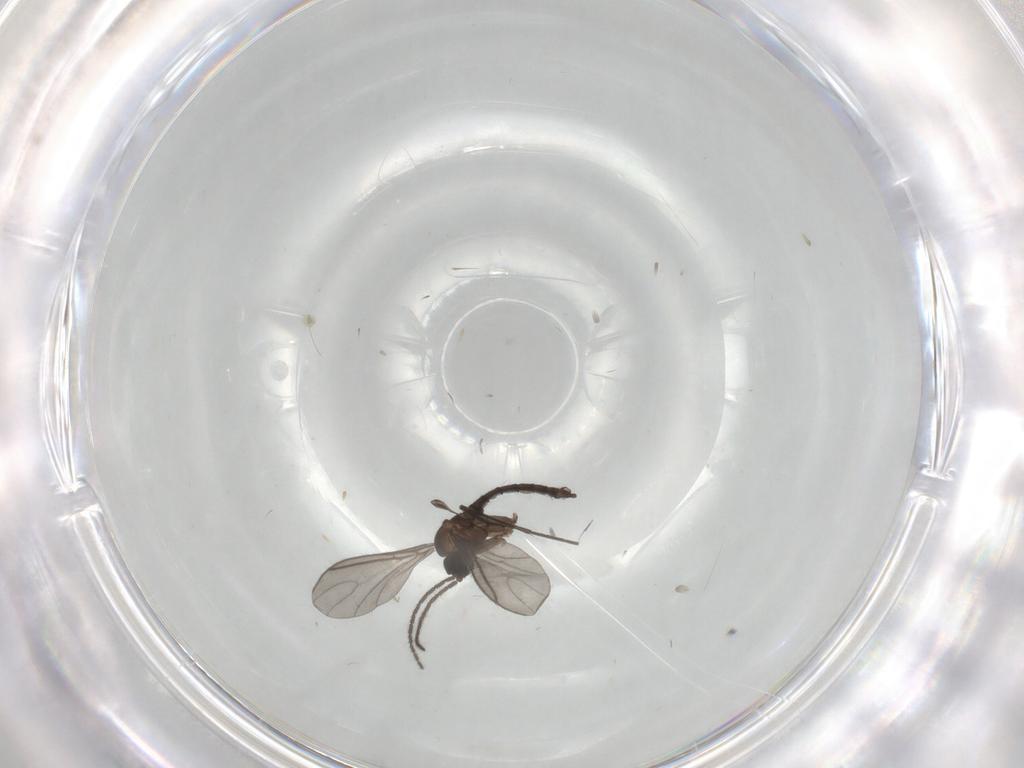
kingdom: Animalia
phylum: Arthropoda
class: Insecta
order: Diptera
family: Sciaridae
